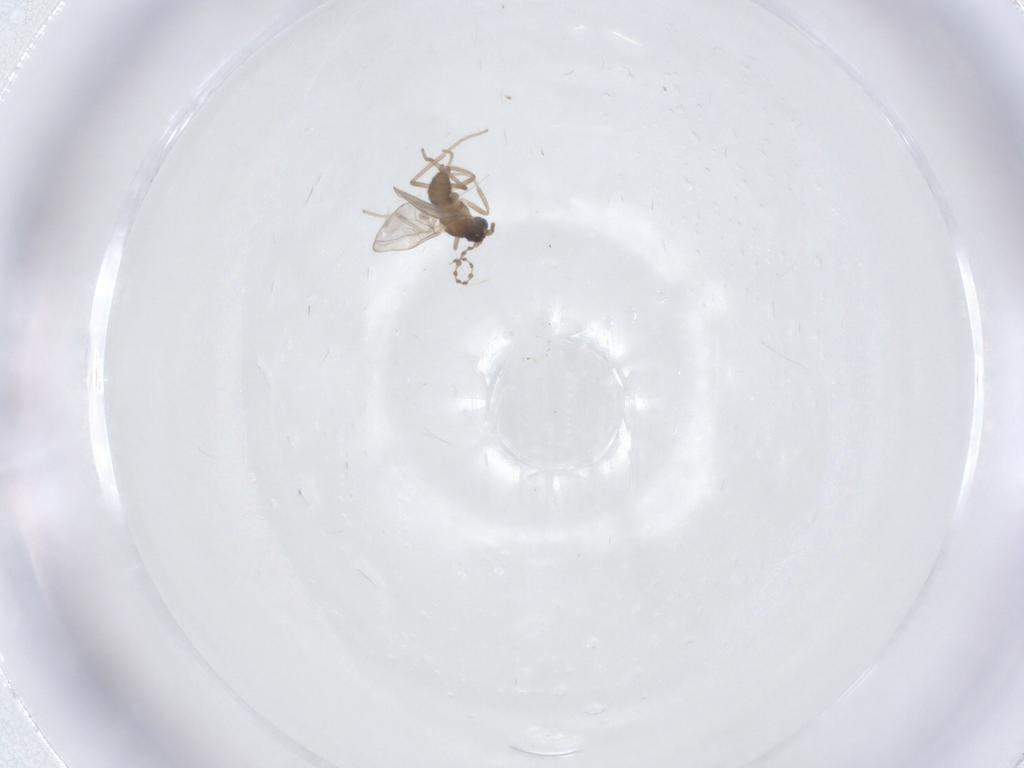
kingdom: Animalia
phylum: Arthropoda
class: Insecta
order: Diptera
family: Cecidomyiidae
